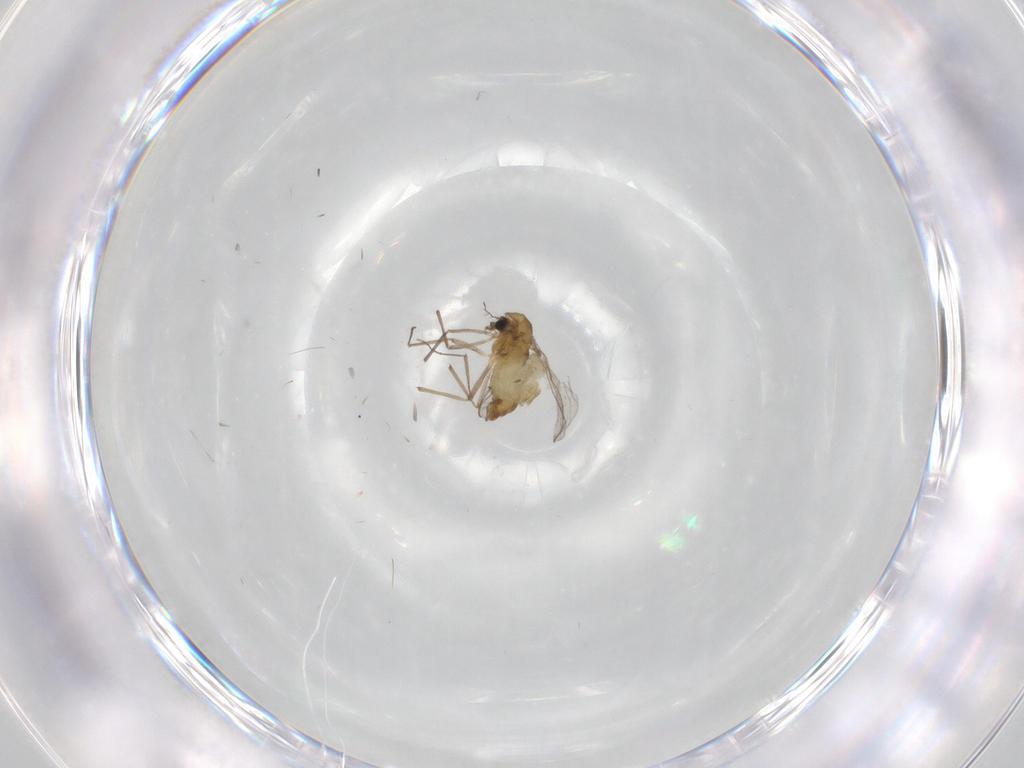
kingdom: Animalia
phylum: Arthropoda
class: Insecta
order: Diptera
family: Chironomidae
